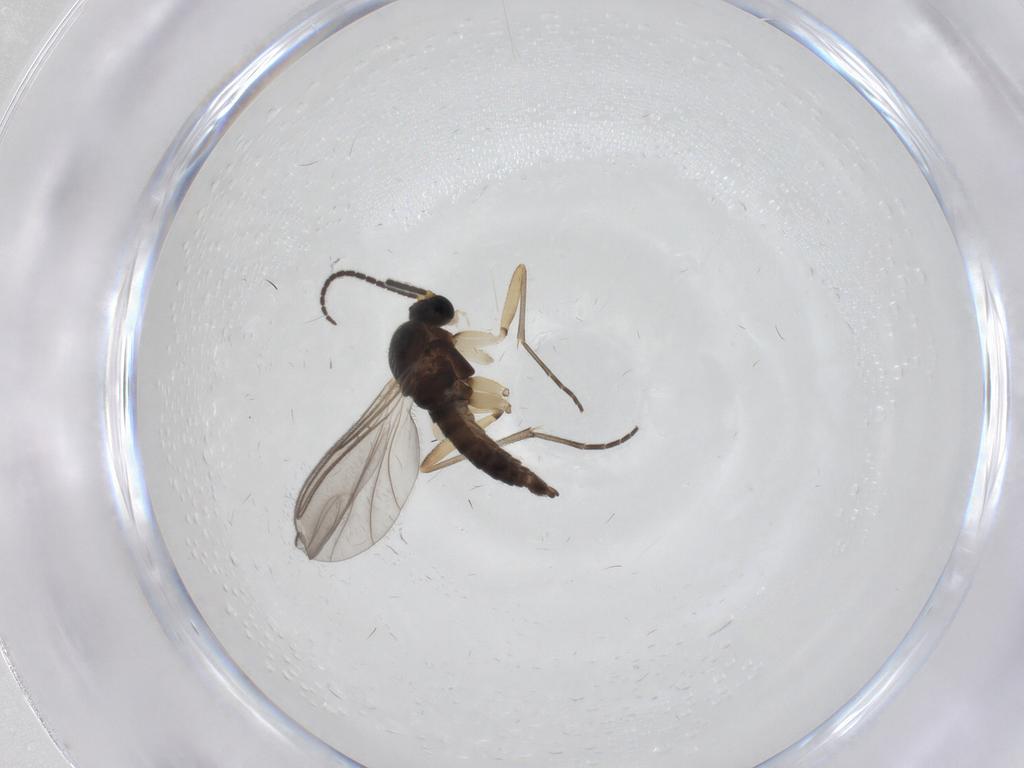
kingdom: Animalia
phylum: Arthropoda
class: Insecta
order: Diptera
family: Sciaridae
